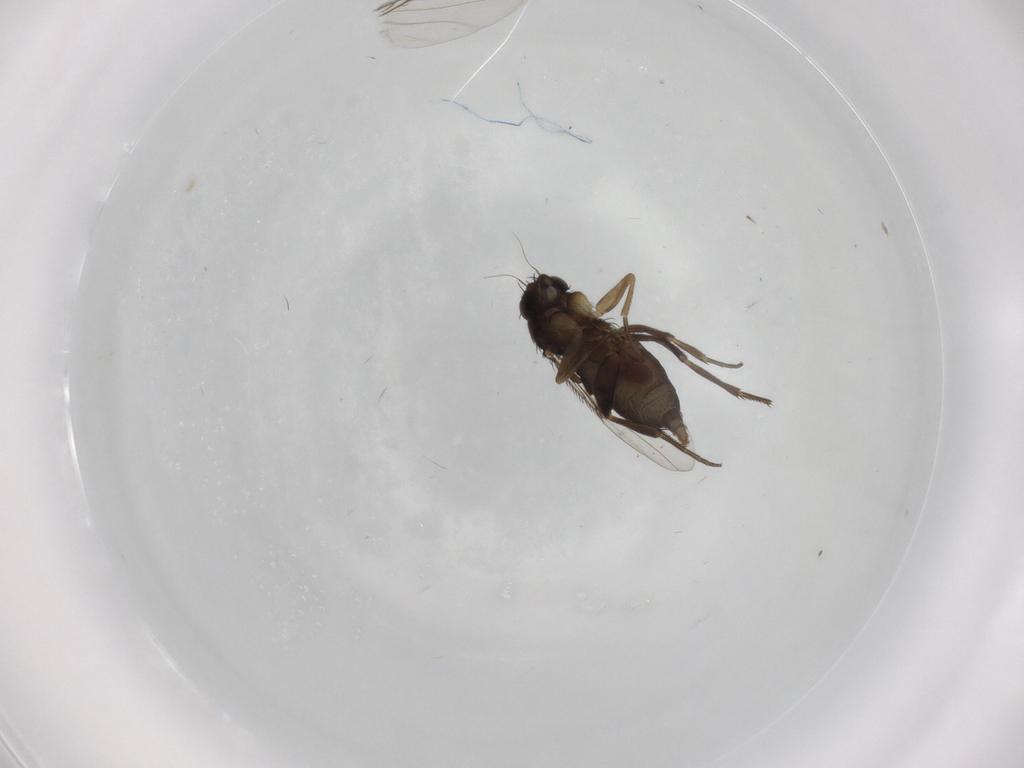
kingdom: Animalia
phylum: Arthropoda
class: Insecta
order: Diptera
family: Phoridae
